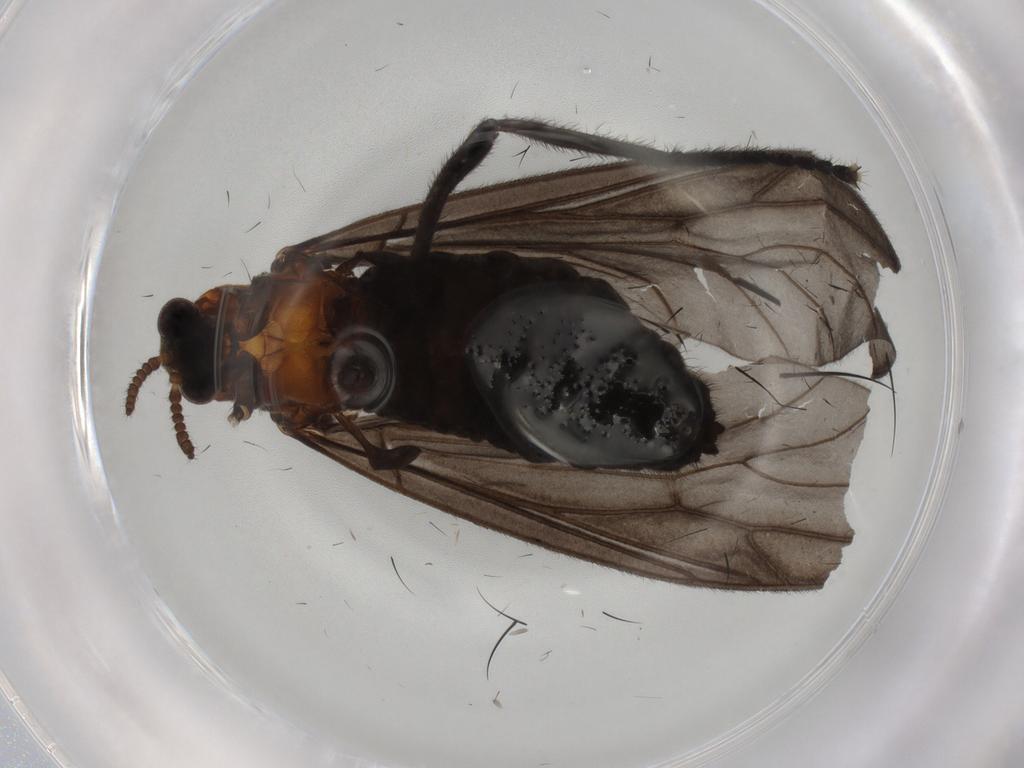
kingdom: Animalia
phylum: Arthropoda
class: Insecta
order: Diptera
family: Bibionidae
